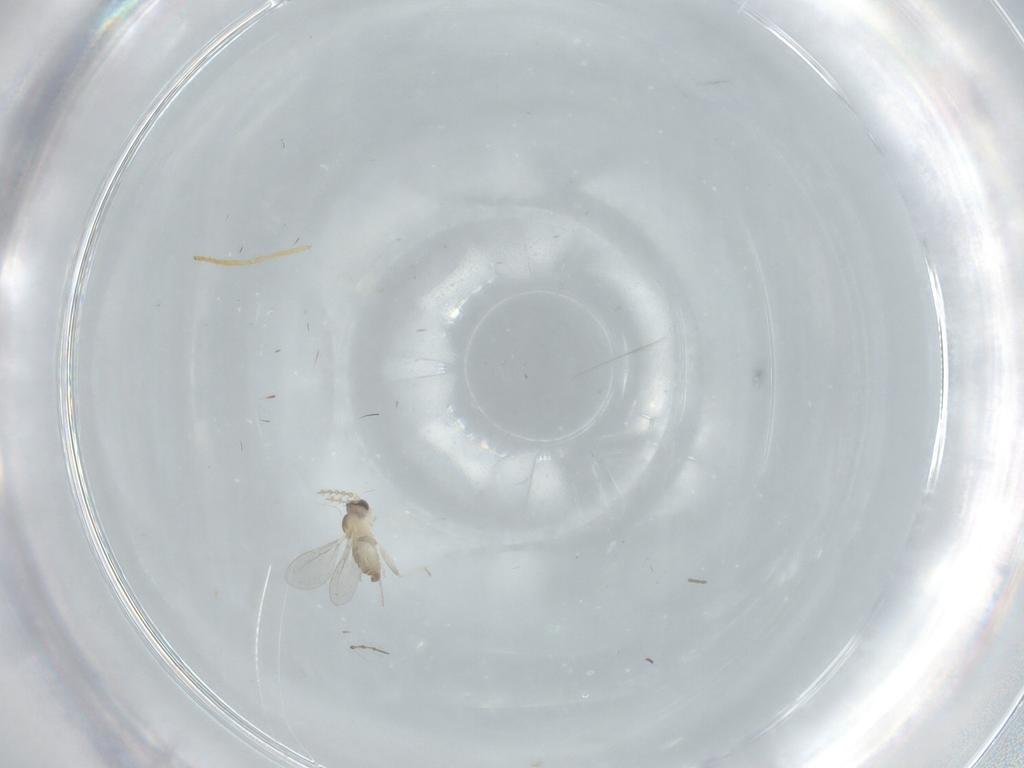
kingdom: Animalia
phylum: Arthropoda
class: Insecta
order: Diptera
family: Cecidomyiidae
